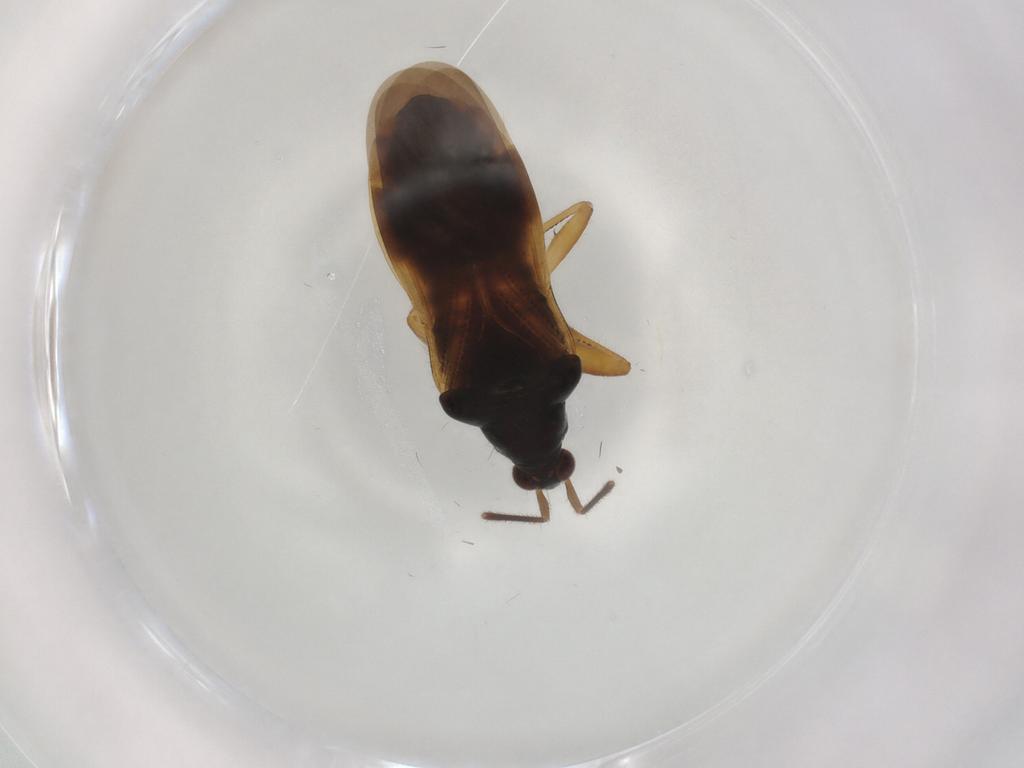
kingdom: Animalia
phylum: Arthropoda
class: Insecta
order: Hemiptera
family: Nabidae
